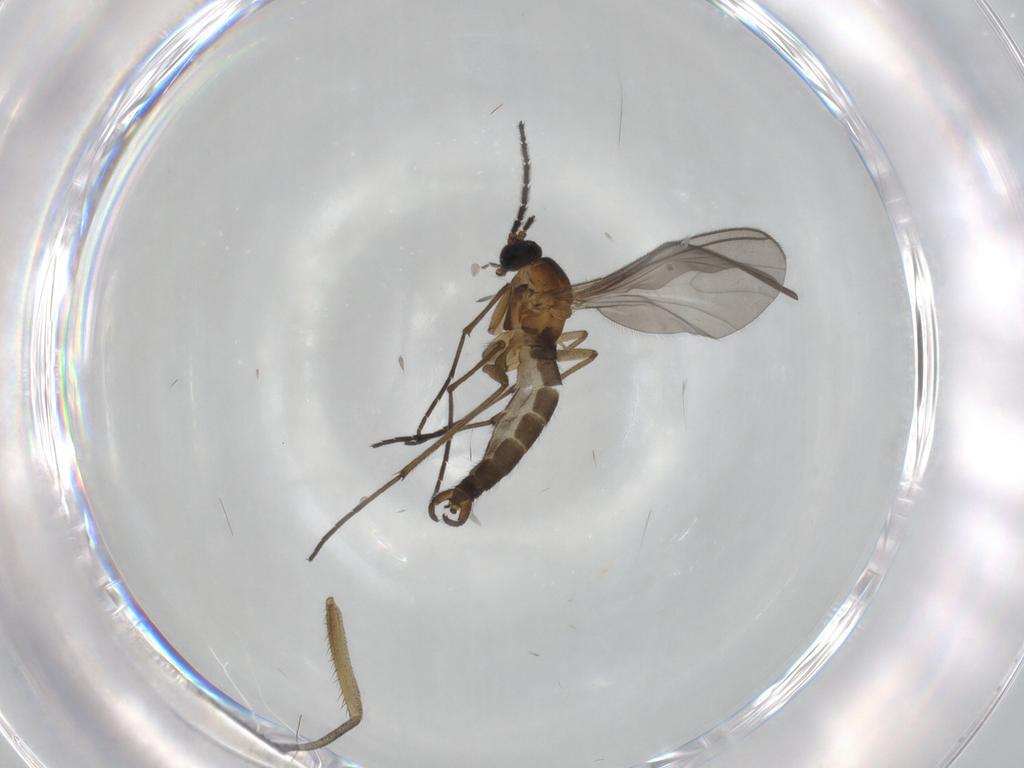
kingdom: Animalia
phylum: Arthropoda
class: Insecta
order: Diptera
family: Sciaridae
